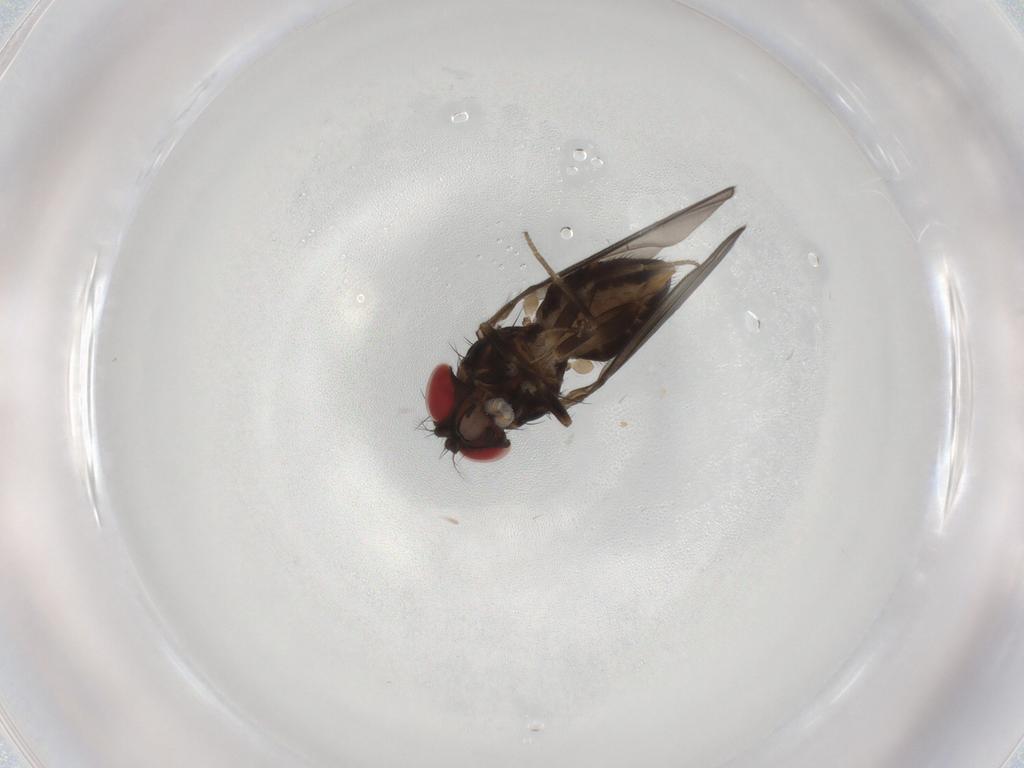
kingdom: Animalia
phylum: Arthropoda
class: Insecta
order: Diptera
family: Drosophilidae
